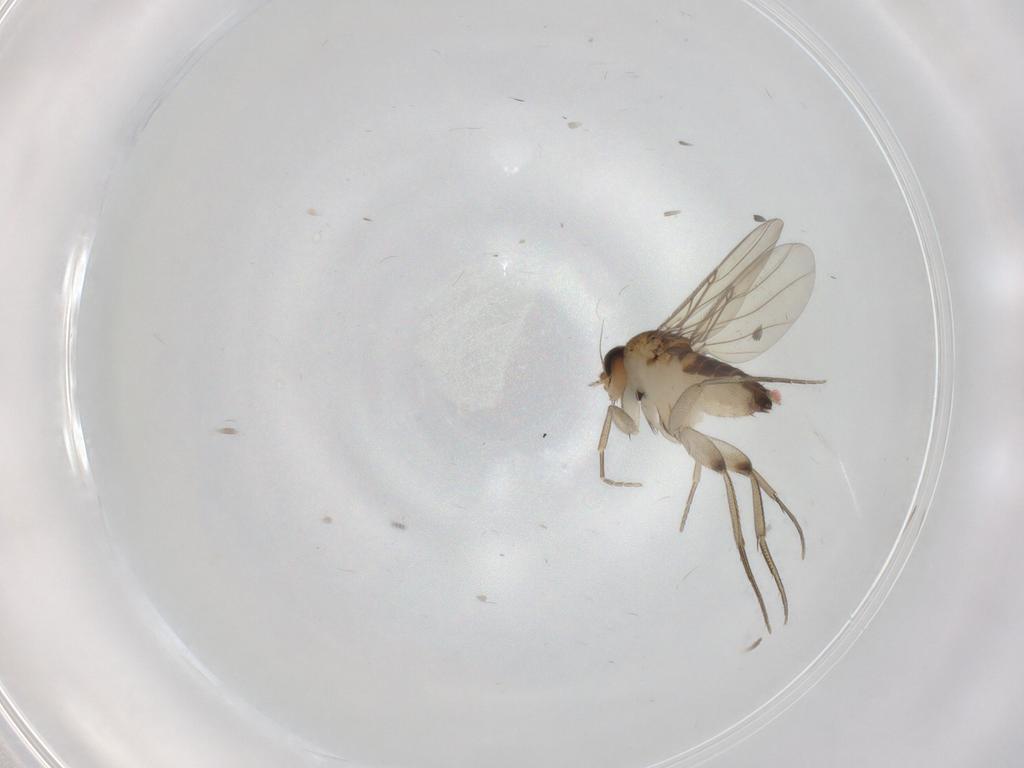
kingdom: Animalia
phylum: Arthropoda
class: Insecta
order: Diptera
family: Phoridae
